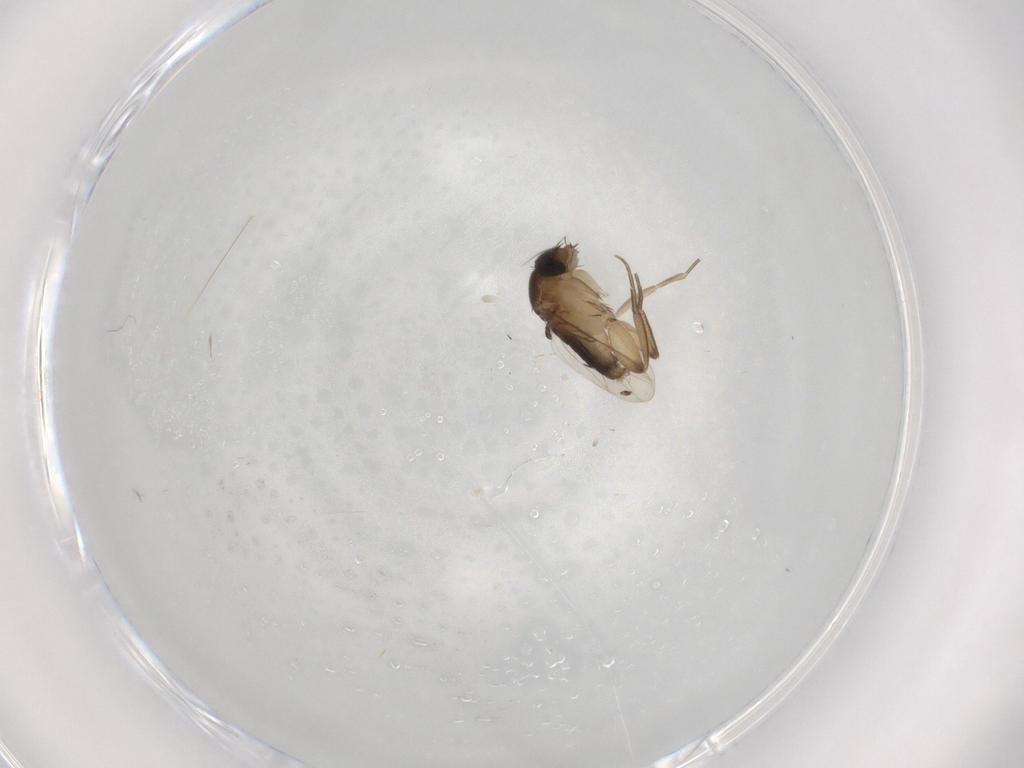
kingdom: Animalia
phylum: Arthropoda
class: Insecta
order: Diptera
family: Phoridae
